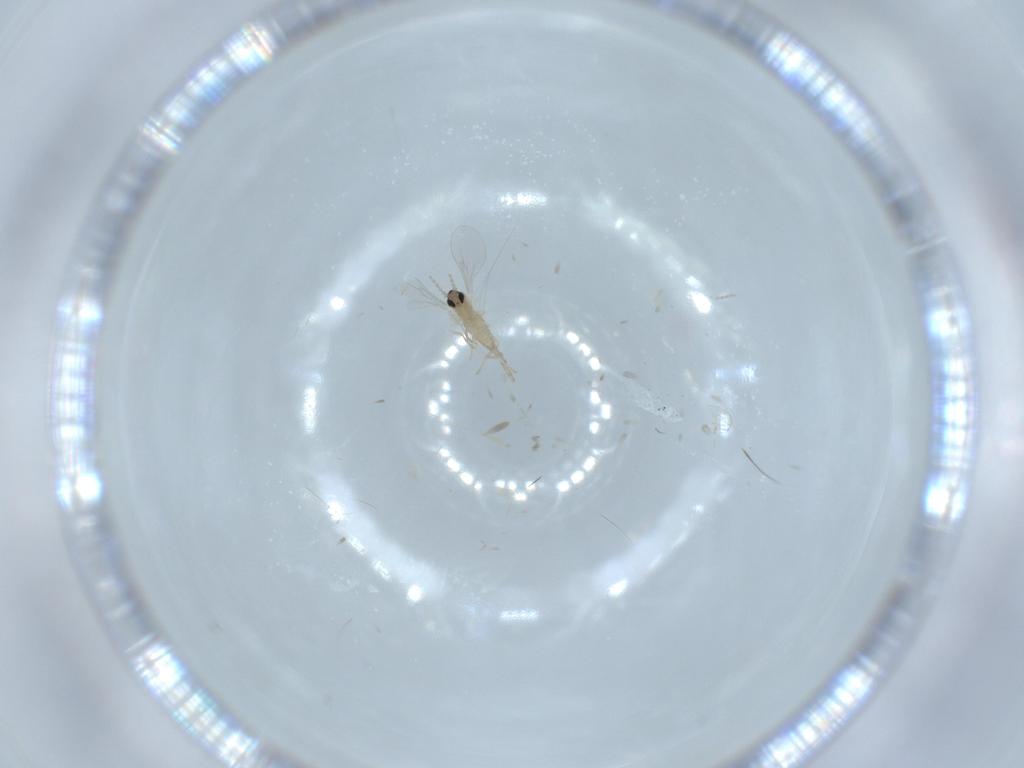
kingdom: Animalia
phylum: Arthropoda
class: Insecta
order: Diptera
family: Cecidomyiidae
